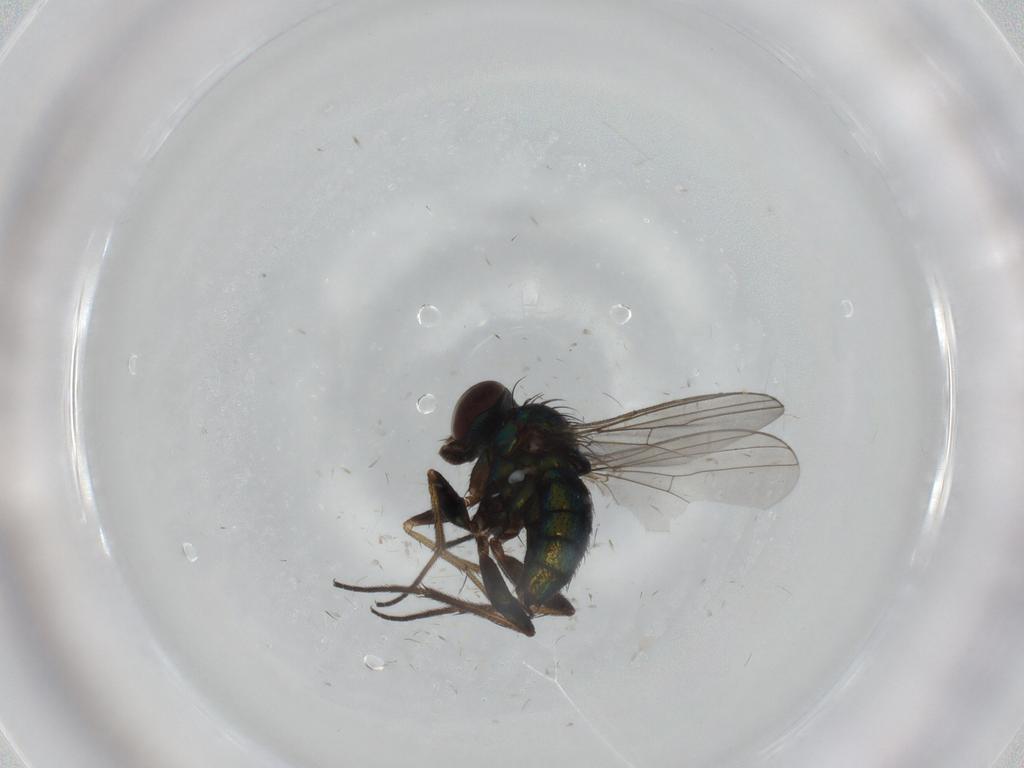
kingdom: Animalia
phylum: Arthropoda
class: Insecta
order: Diptera
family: Dolichopodidae
